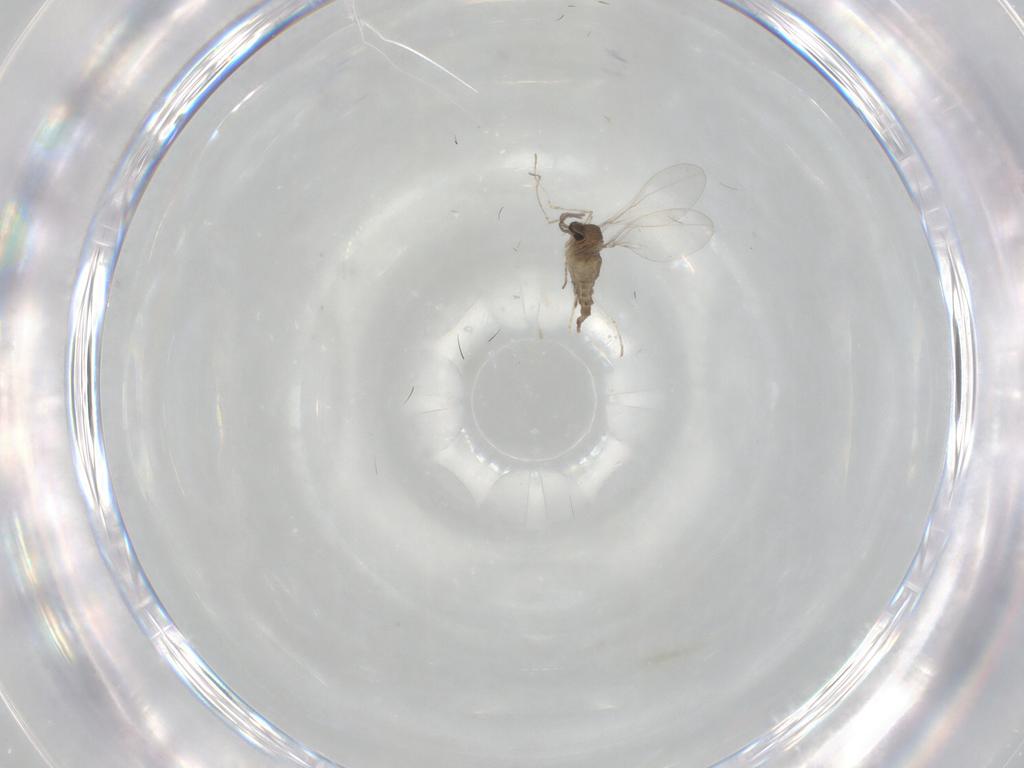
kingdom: Animalia
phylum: Arthropoda
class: Insecta
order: Diptera
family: Cecidomyiidae
